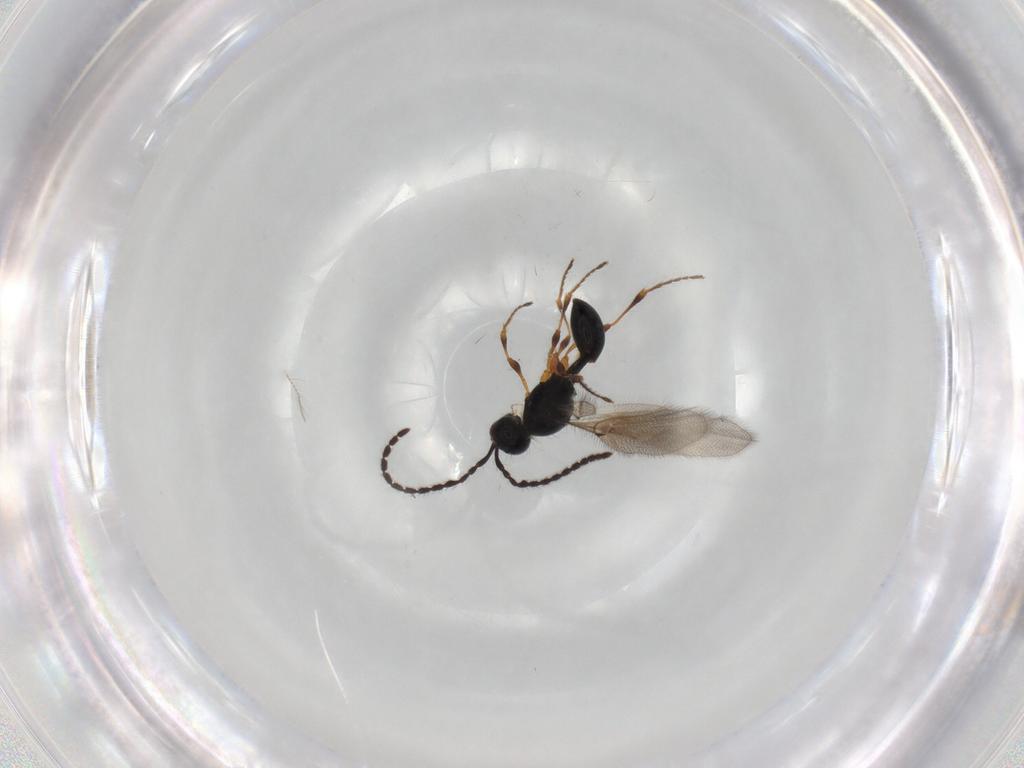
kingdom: Animalia
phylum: Arthropoda
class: Insecta
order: Hymenoptera
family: Diapriidae
